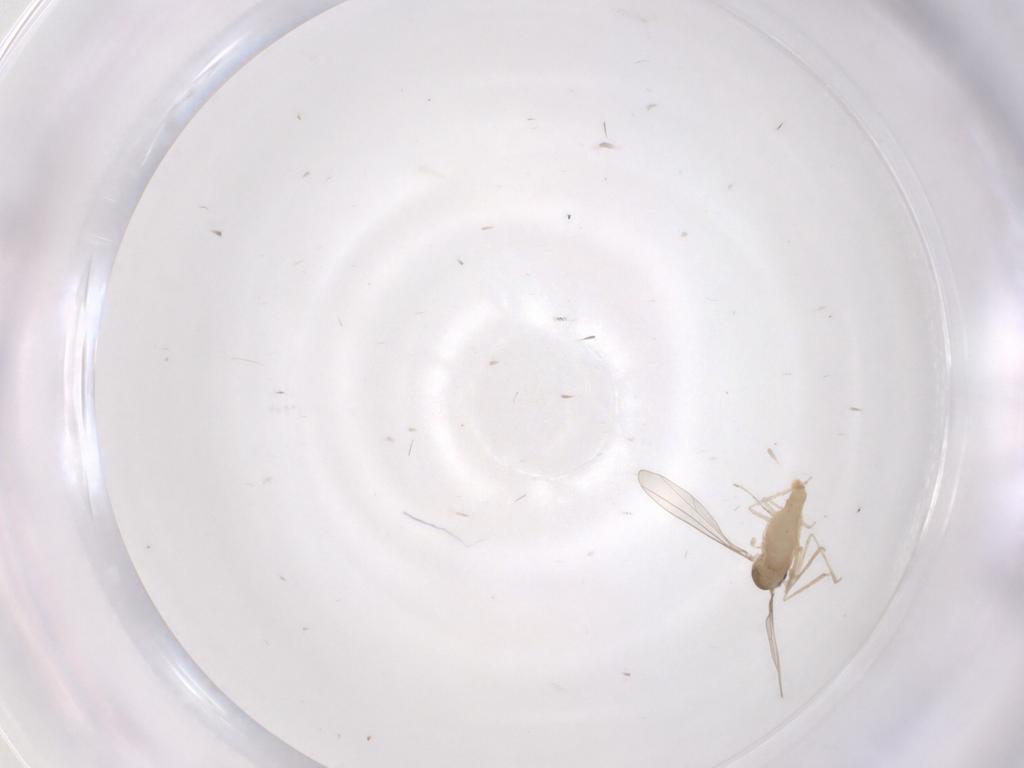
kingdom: Animalia
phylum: Arthropoda
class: Insecta
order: Diptera
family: Cecidomyiidae
